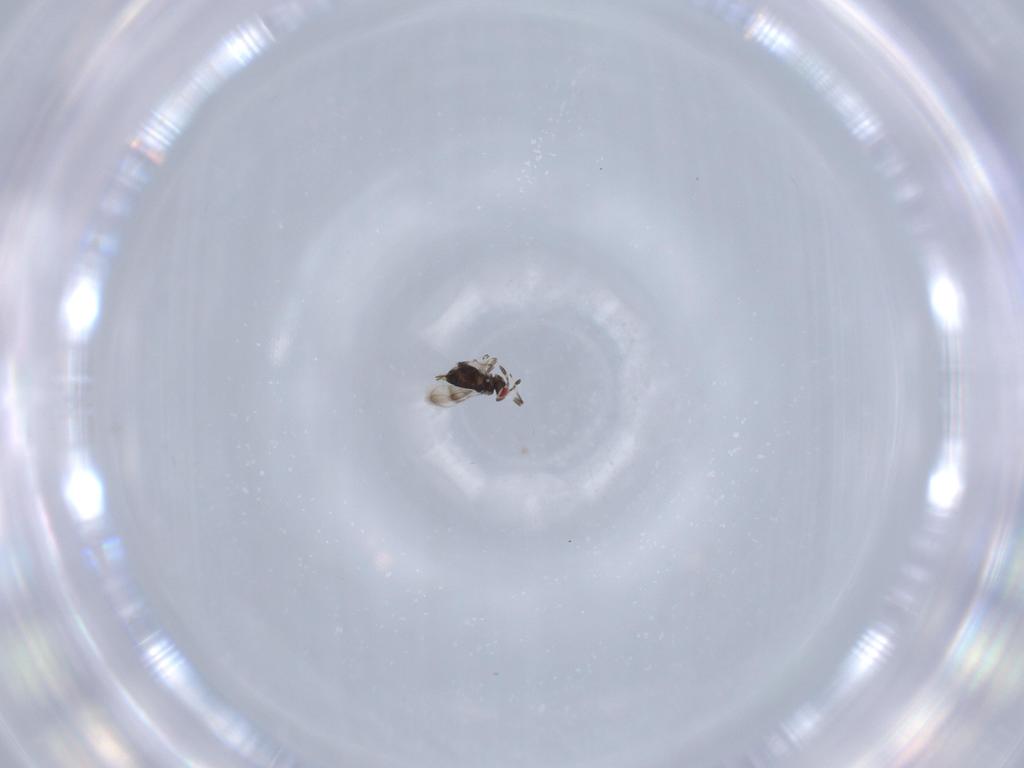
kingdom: Animalia
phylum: Arthropoda
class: Insecta
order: Hymenoptera
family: Azotidae
